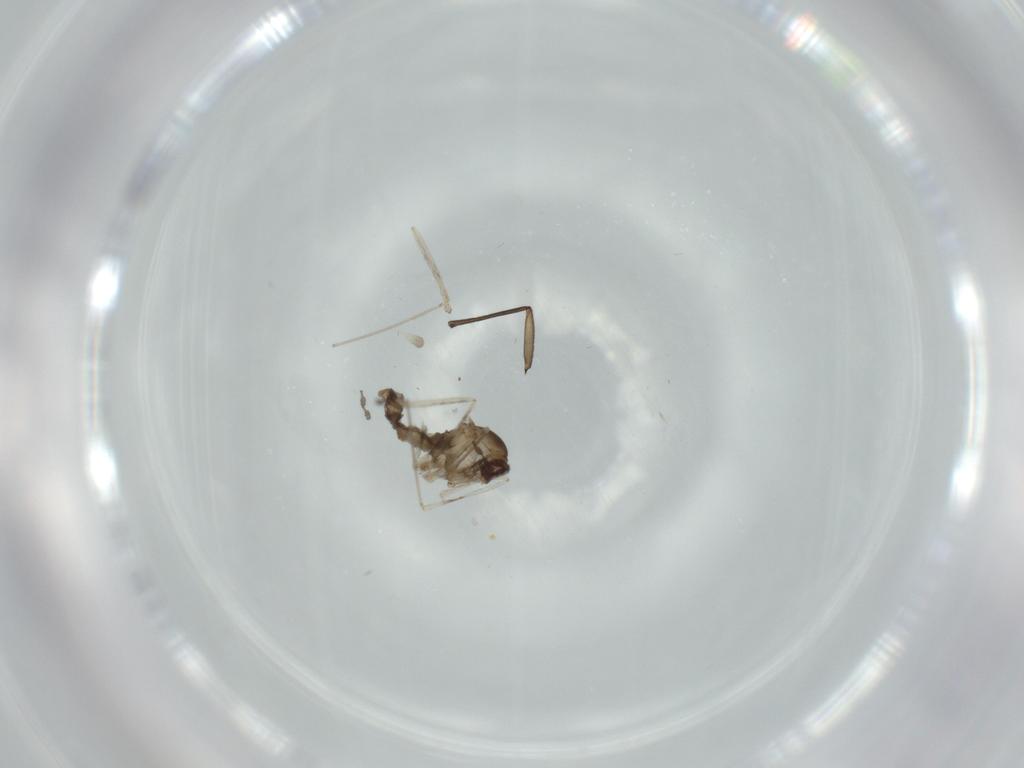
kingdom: Animalia
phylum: Arthropoda
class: Insecta
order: Diptera
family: Cecidomyiidae
